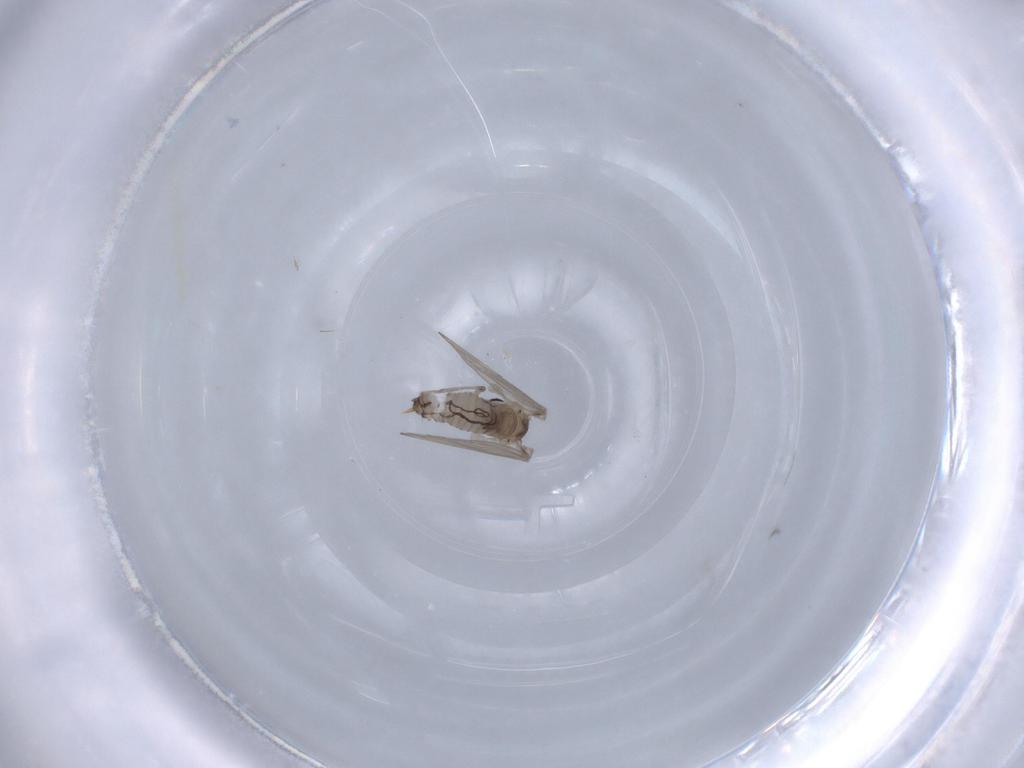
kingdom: Animalia
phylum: Arthropoda
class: Insecta
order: Diptera
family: Psychodidae
